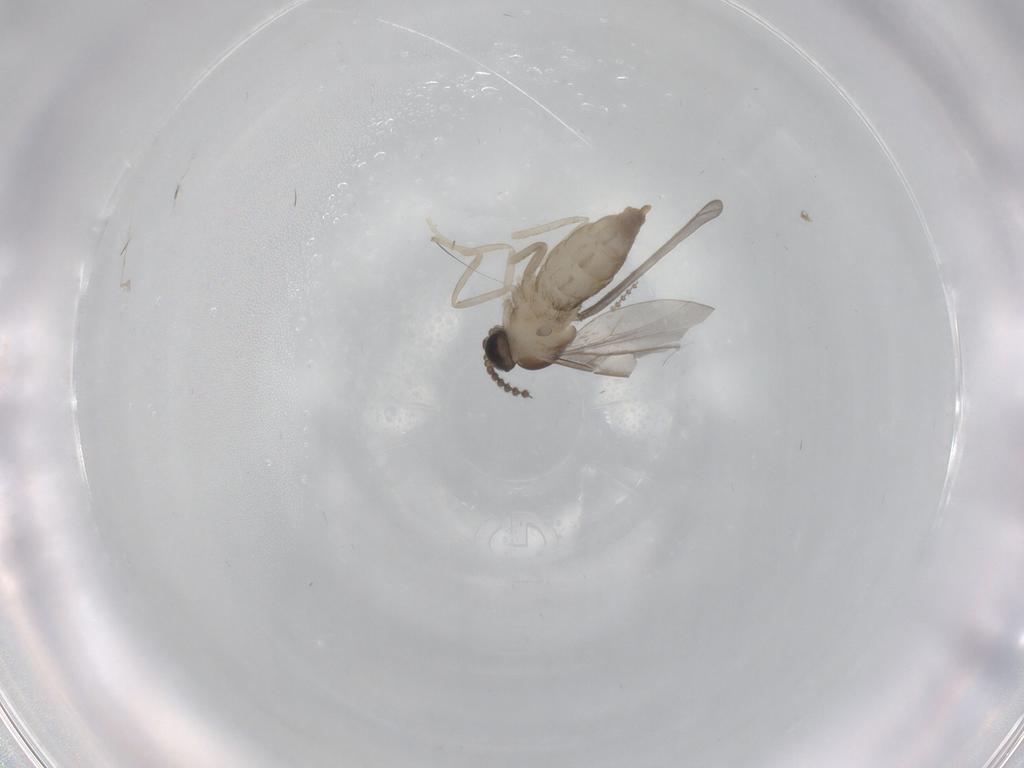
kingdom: Animalia
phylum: Arthropoda
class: Insecta
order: Diptera
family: Cecidomyiidae
